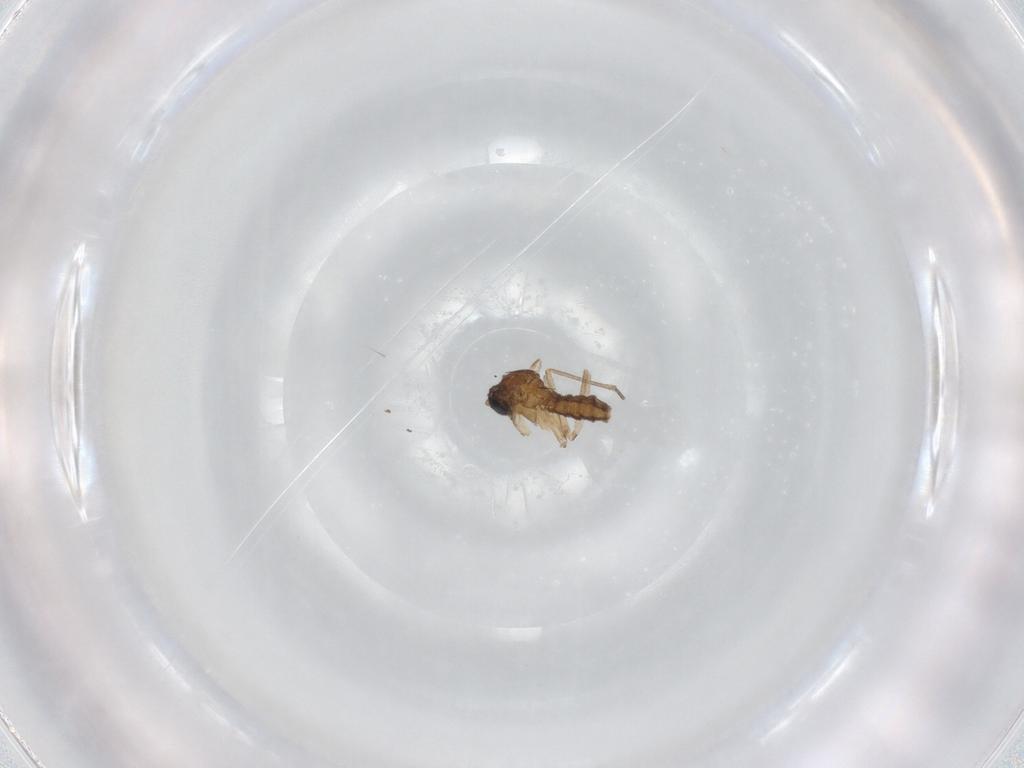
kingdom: Animalia
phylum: Arthropoda
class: Insecta
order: Diptera
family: Sciaridae
